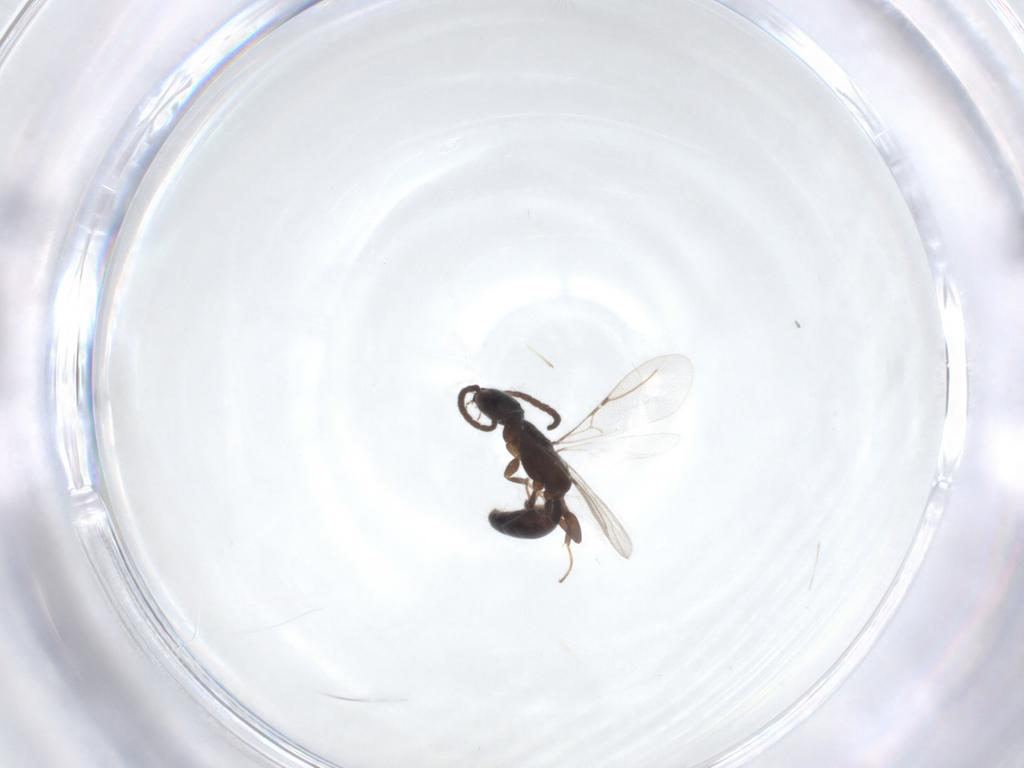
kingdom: Animalia
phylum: Arthropoda
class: Insecta
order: Hymenoptera
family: Bethylidae
